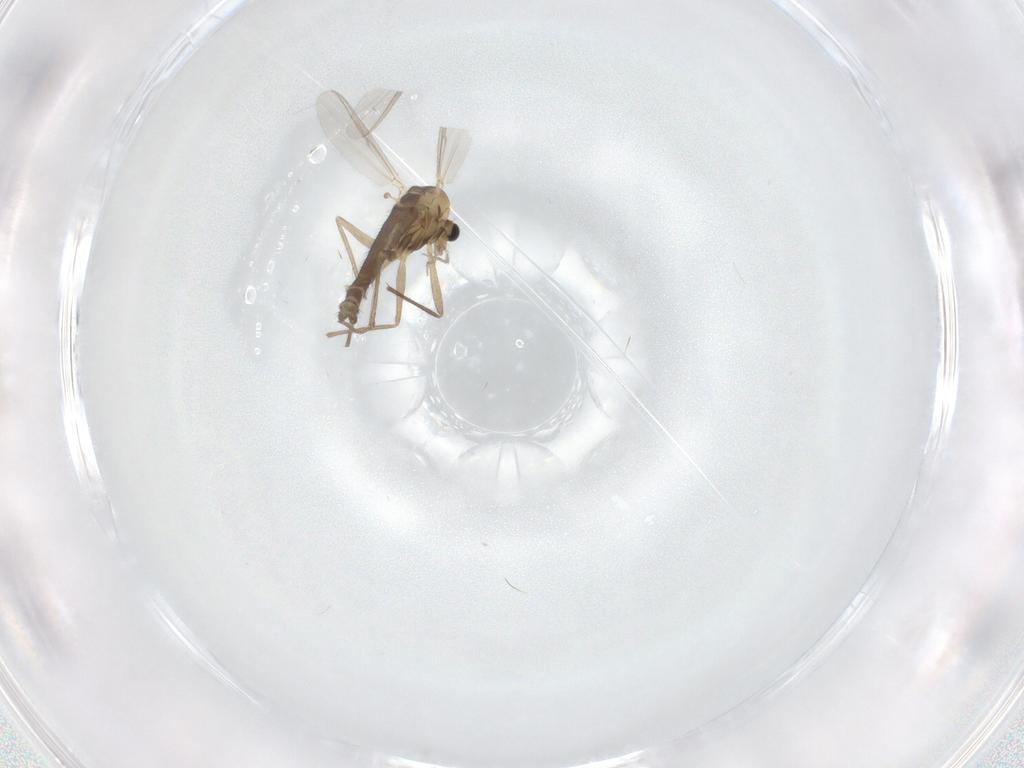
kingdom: Animalia
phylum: Arthropoda
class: Insecta
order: Diptera
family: Chironomidae
